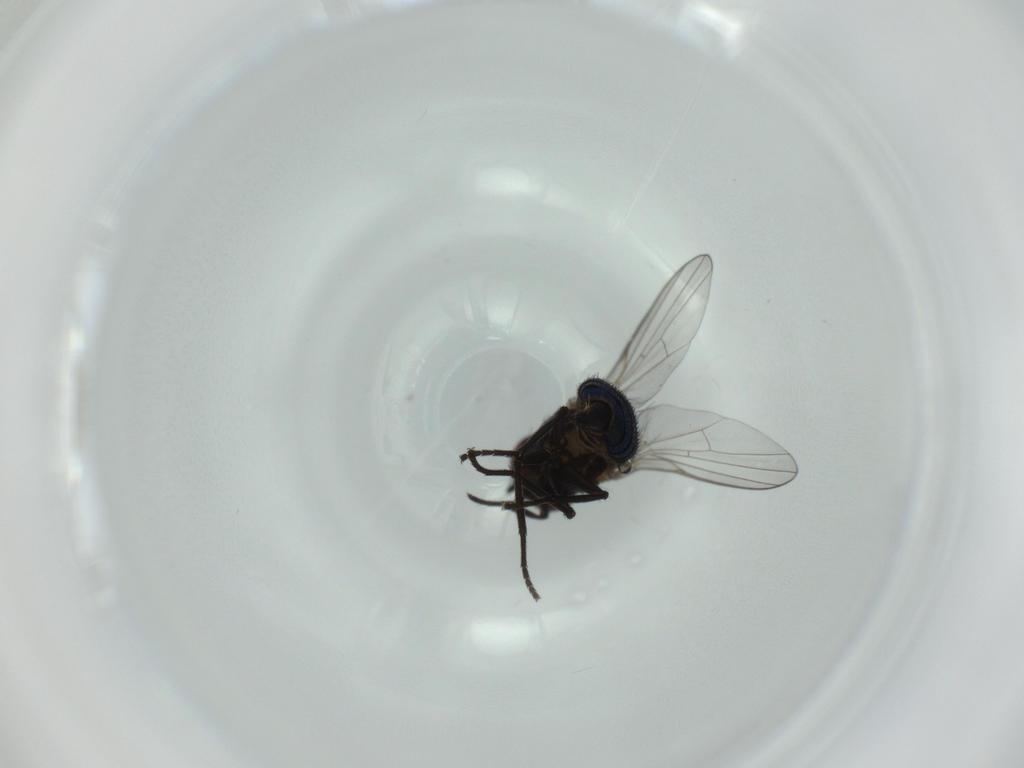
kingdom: Animalia
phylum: Arthropoda
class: Insecta
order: Diptera
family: Agromyzidae
